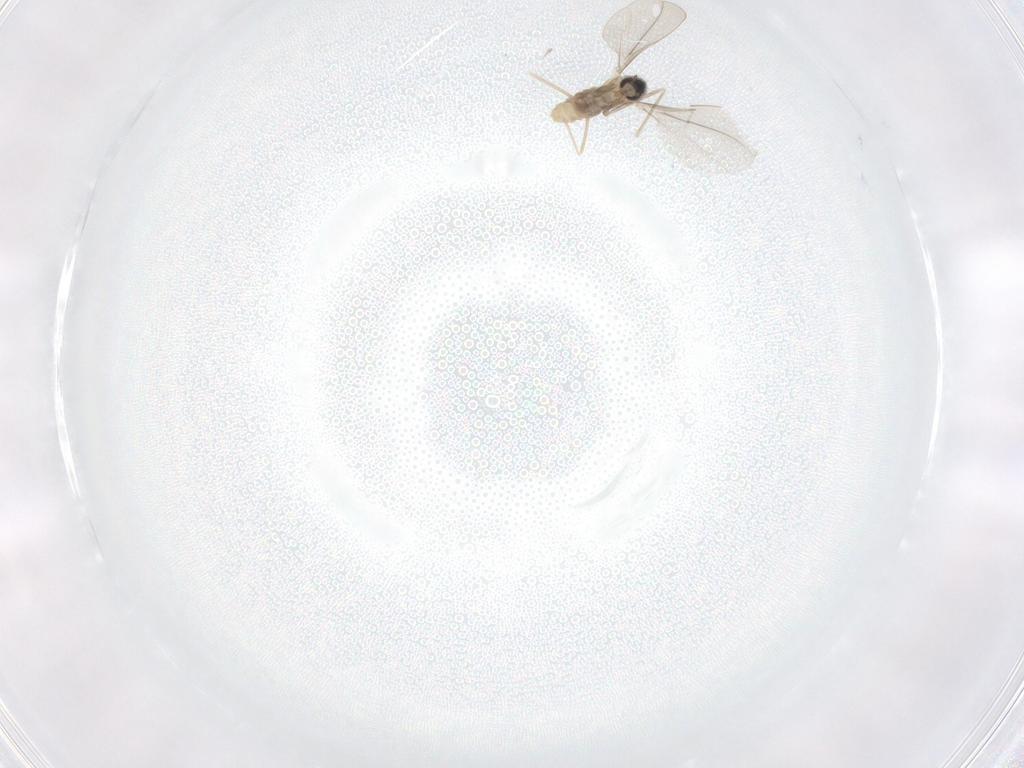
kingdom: Animalia
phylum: Arthropoda
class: Insecta
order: Diptera
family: Cecidomyiidae
